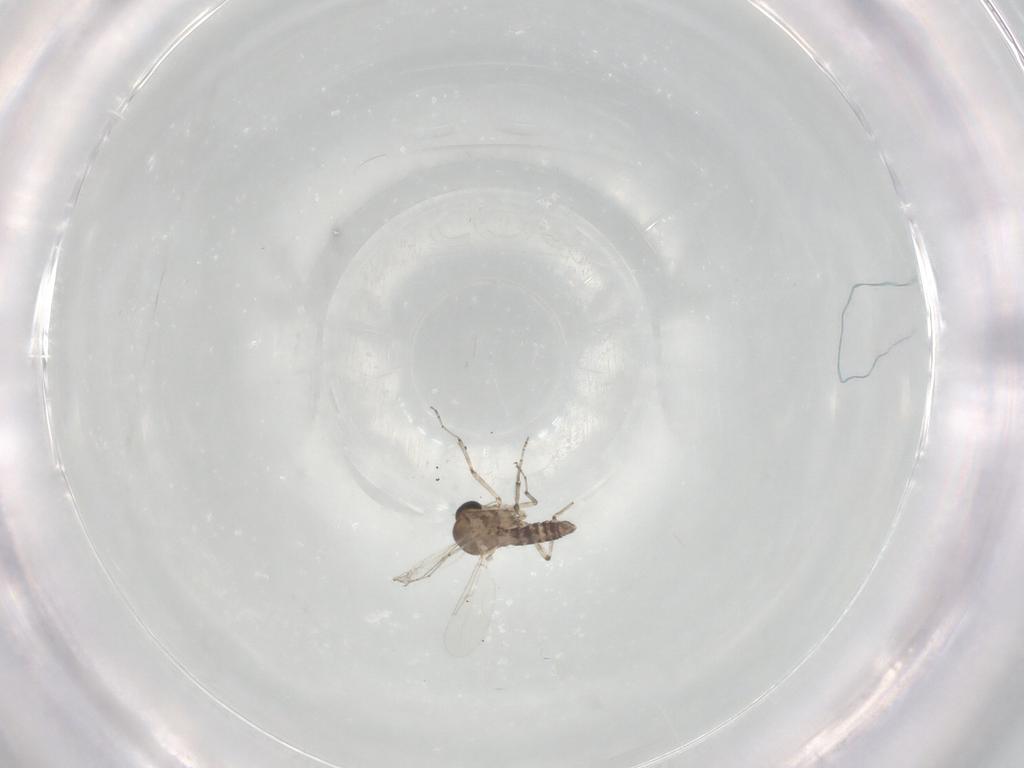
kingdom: Animalia
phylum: Arthropoda
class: Insecta
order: Diptera
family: Ceratopogonidae
